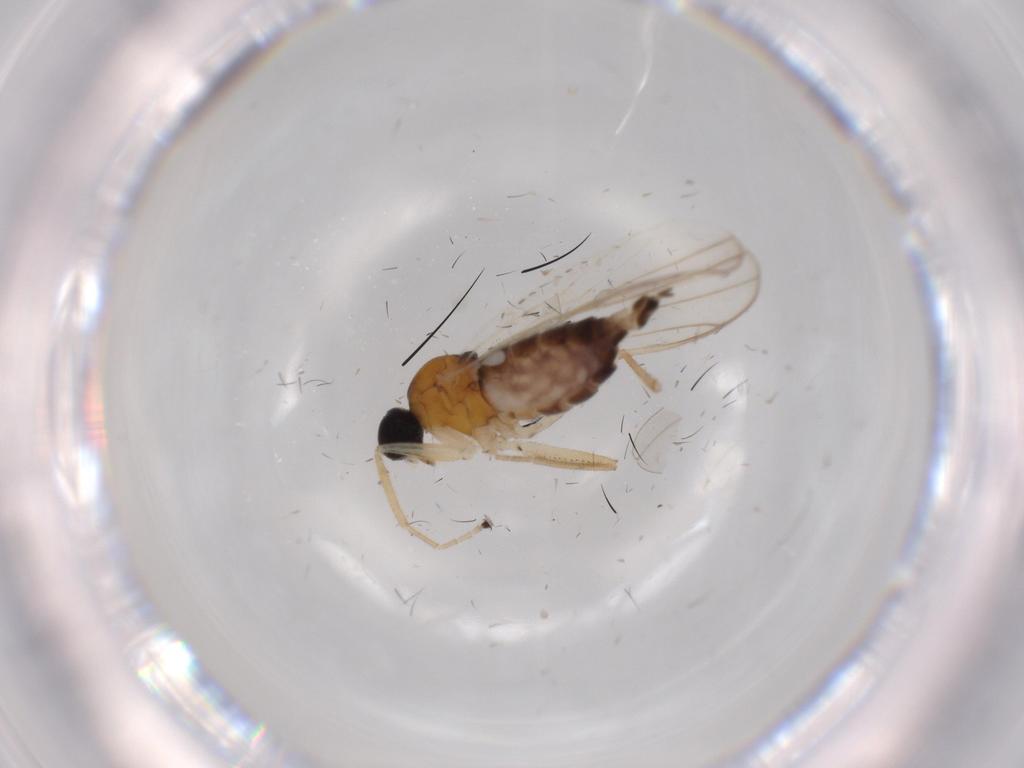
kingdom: Animalia
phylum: Arthropoda
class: Insecta
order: Diptera
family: Hybotidae
